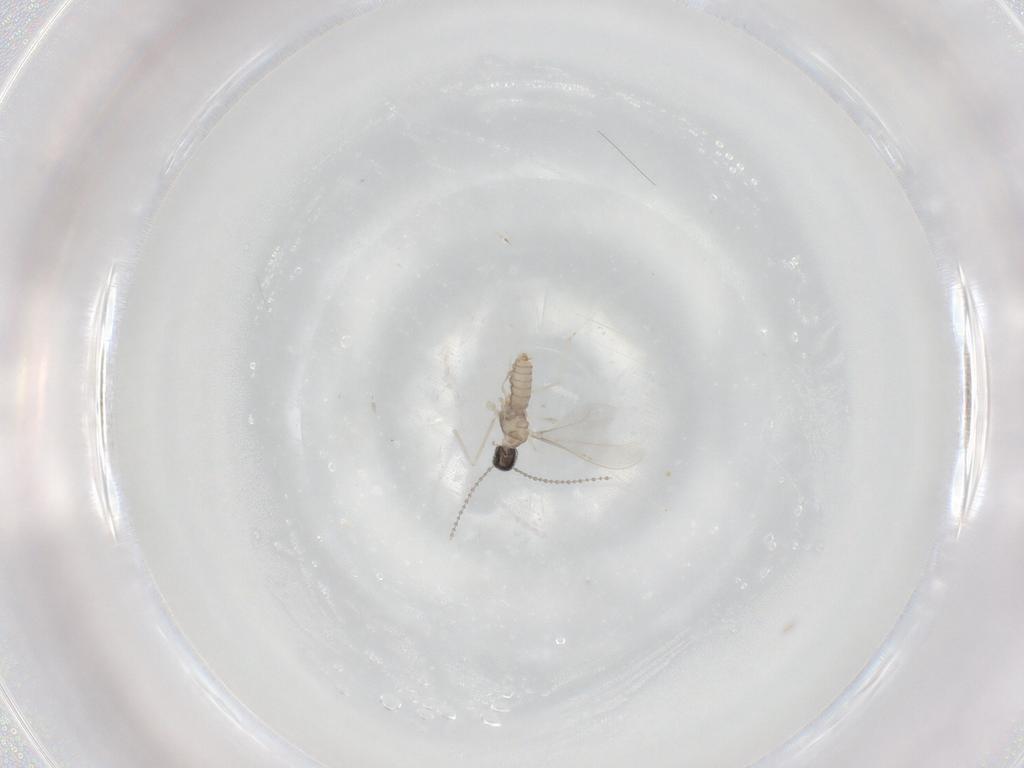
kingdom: Animalia
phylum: Arthropoda
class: Insecta
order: Diptera
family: Cecidomyiidae
